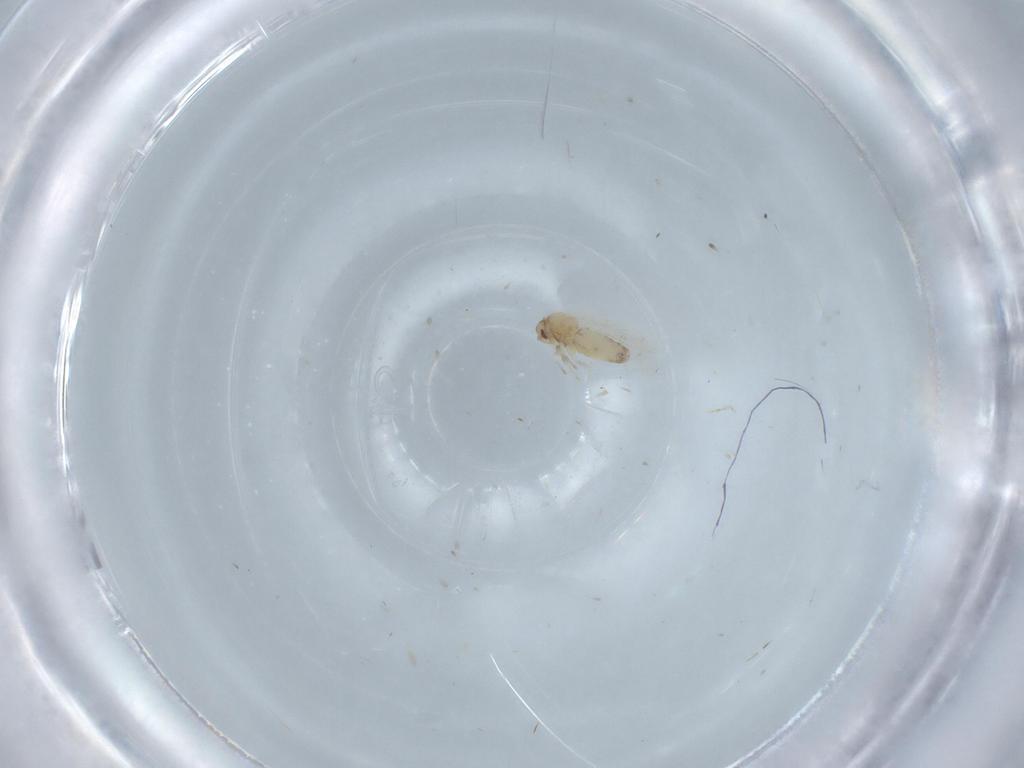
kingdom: Animalia
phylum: Arthropoda
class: Insecta
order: Hemiptera
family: Aleyrodidae
